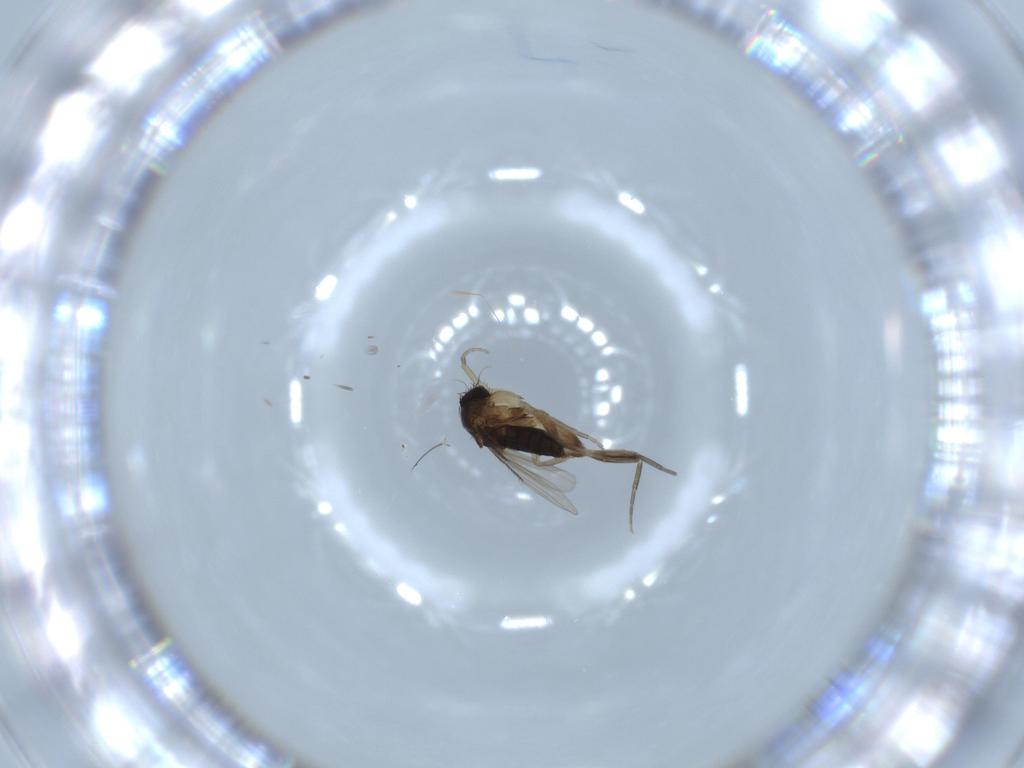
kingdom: Animalia
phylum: Arthropoda
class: Insecta
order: Diptera
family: Phoridae
